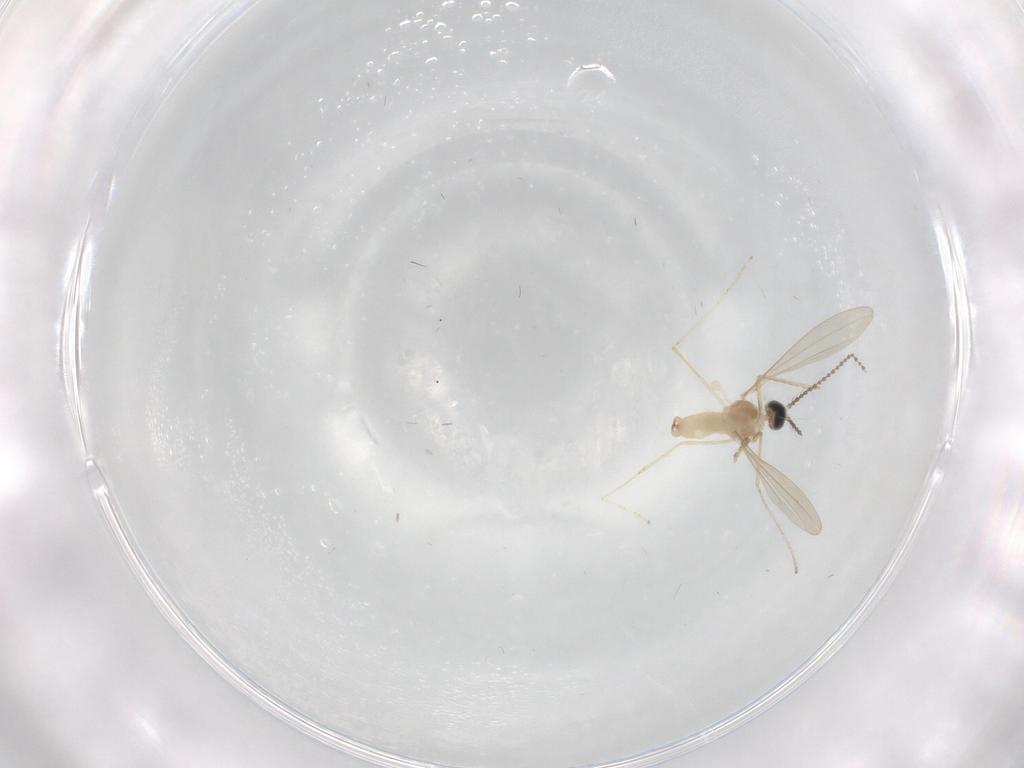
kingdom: Animalia
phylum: Arthropoda
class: Insecta
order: Diptera
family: Cecidomyiidae
